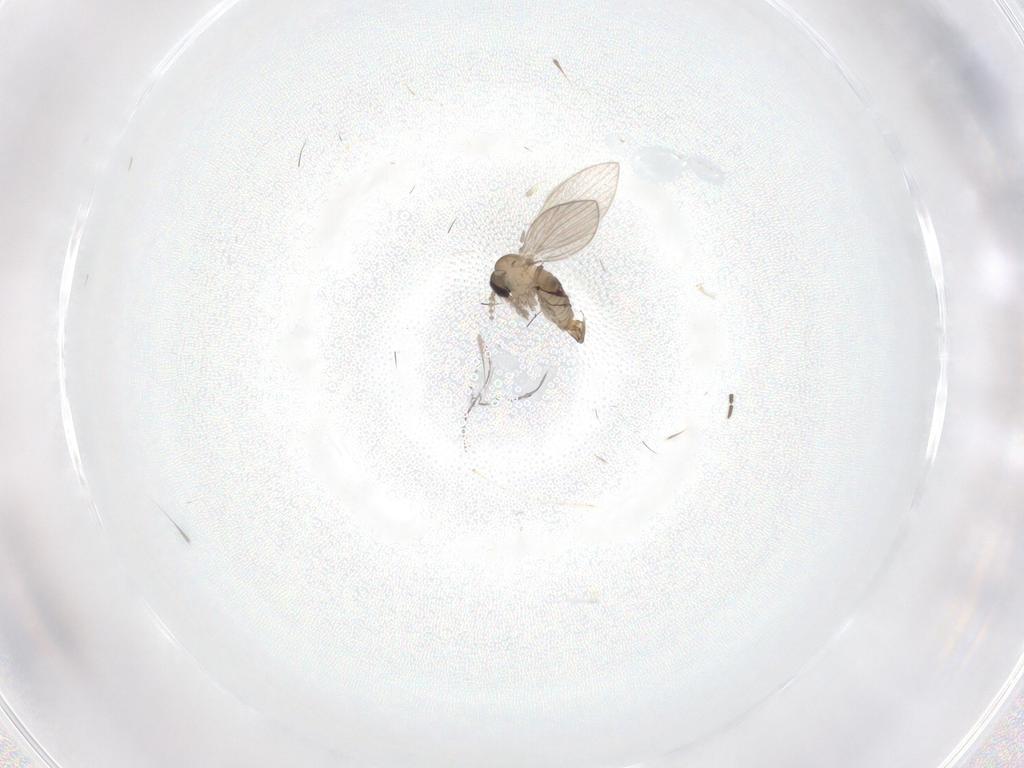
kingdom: Animalia
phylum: Arthropoda
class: Insecta
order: Diptera
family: Psychodidae
